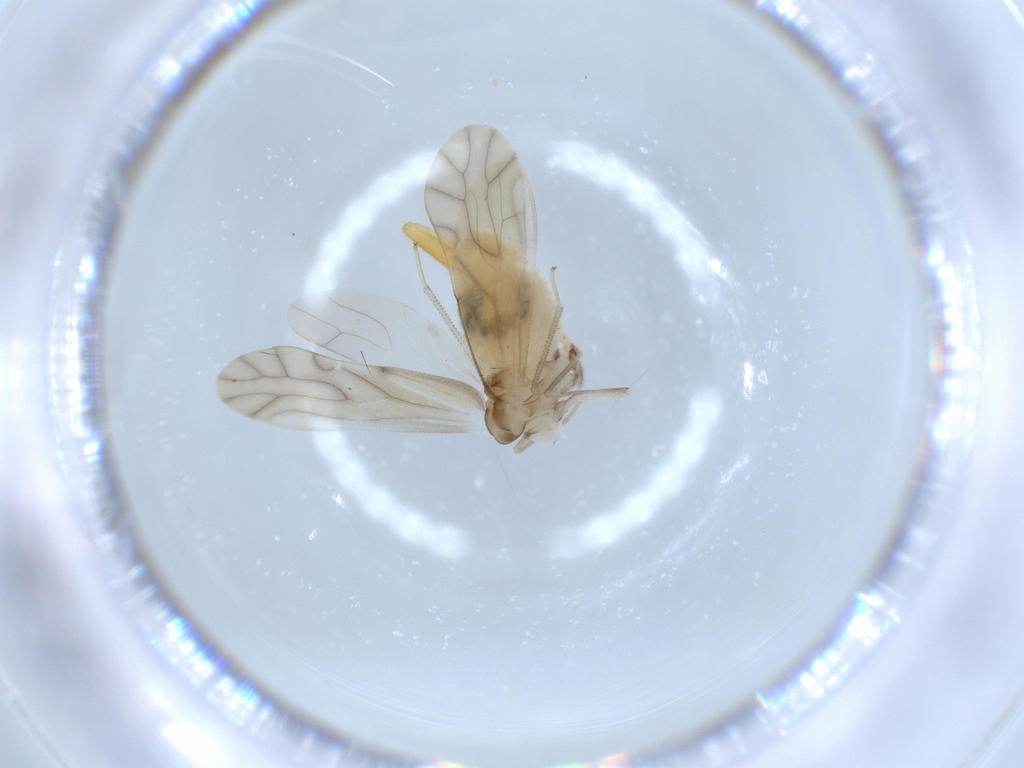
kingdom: Animalia
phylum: Arthropoda
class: Insecta
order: Psocodea
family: Caeciliusidae
